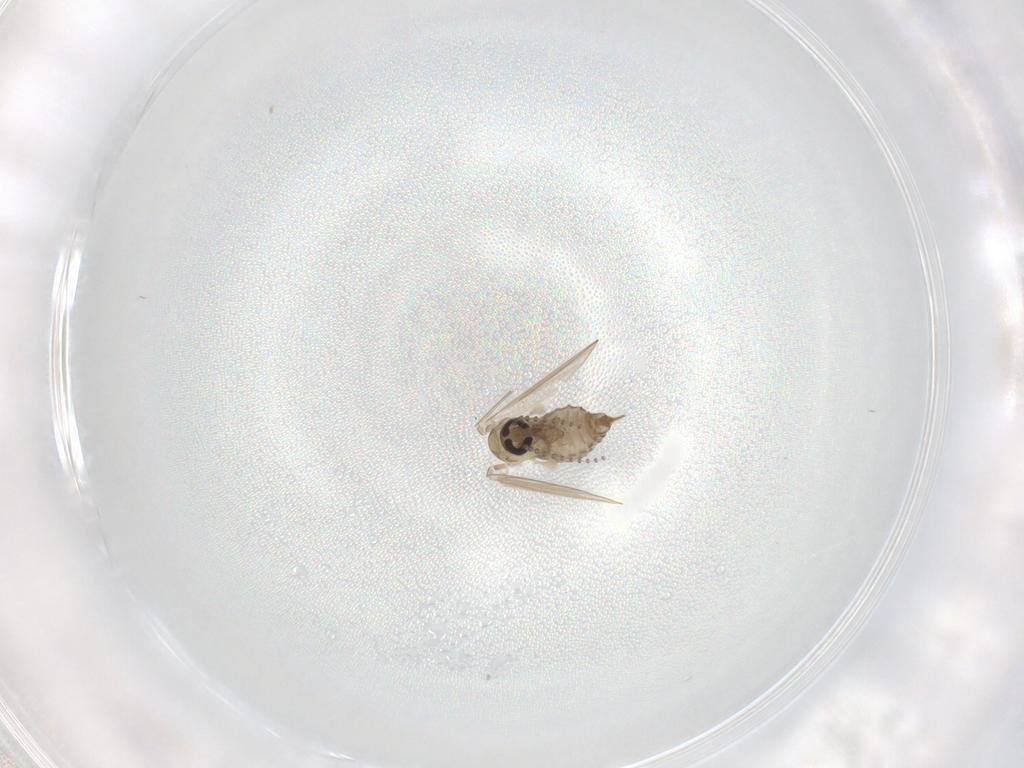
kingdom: Animalia
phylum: Arthropoda
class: Insecta
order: Diptera
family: Psychodidae
